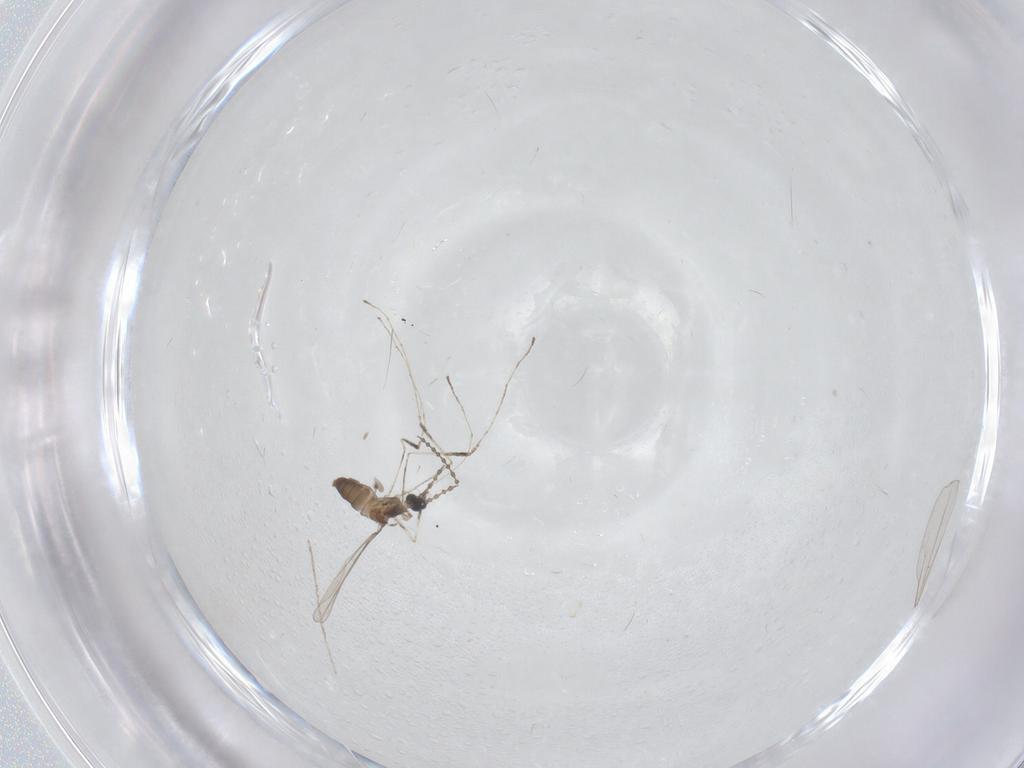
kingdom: Animalia
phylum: Arthropoda
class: Insecta
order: Diptera
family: Cecidomyiidae
